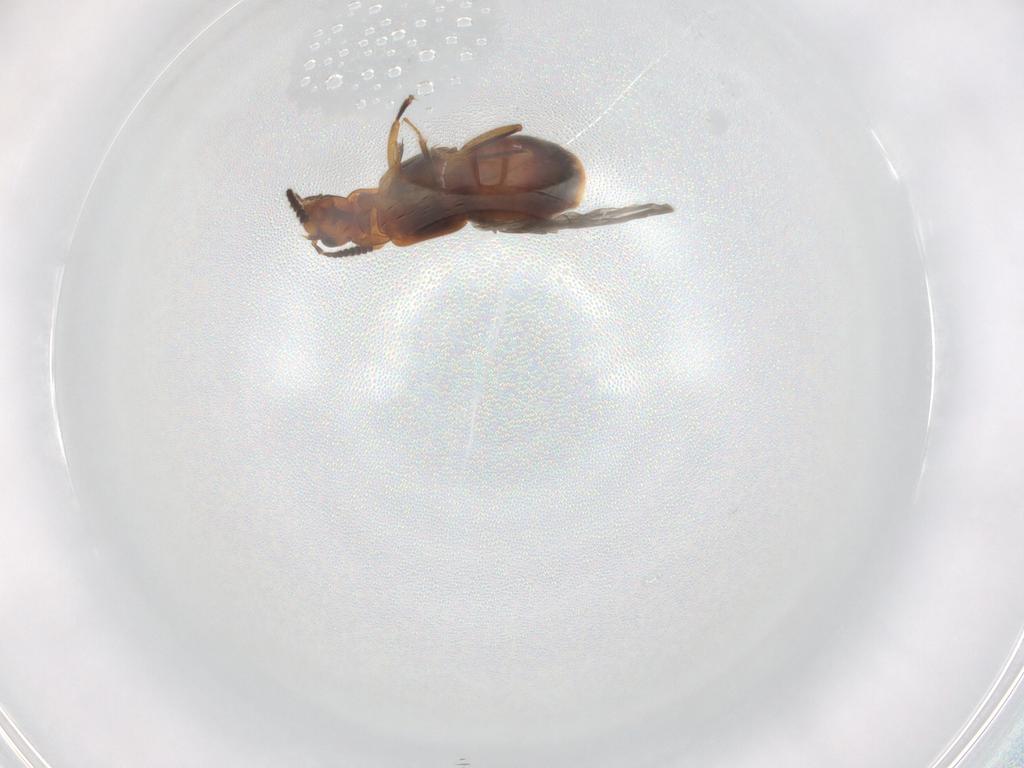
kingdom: Animalia
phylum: Arthropoda
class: Insecta
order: Coleoptera
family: Staphylinidae
